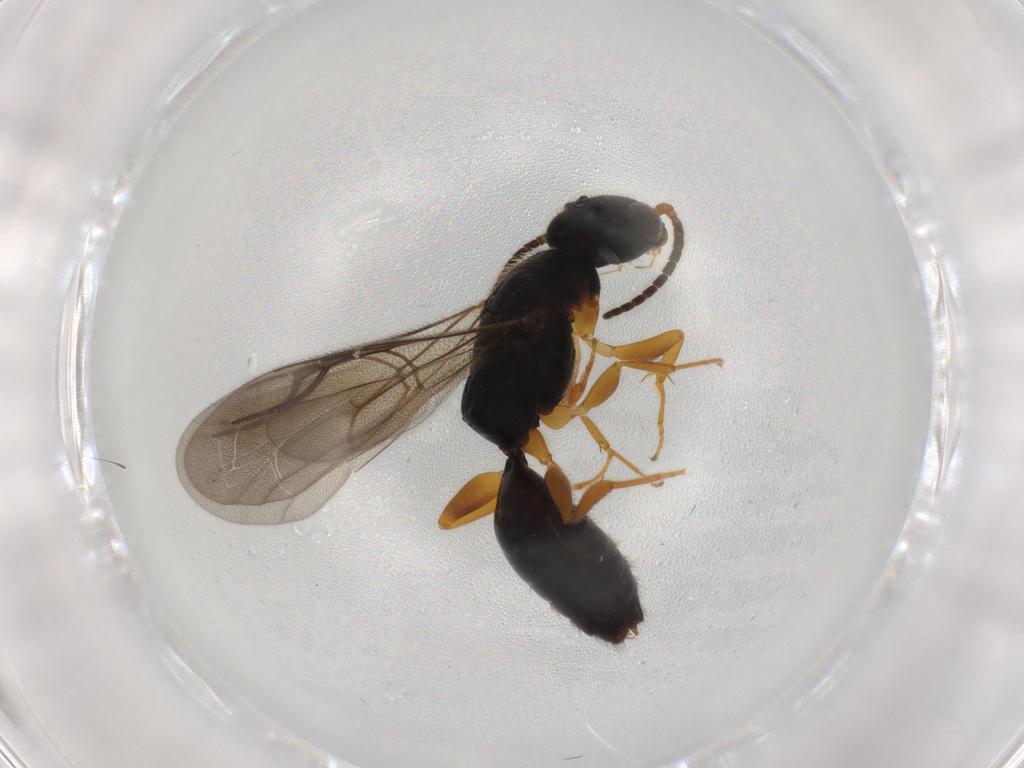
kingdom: Animalia
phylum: Arthropoda
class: Insecta
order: Hymenoptera
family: Bethylidae
